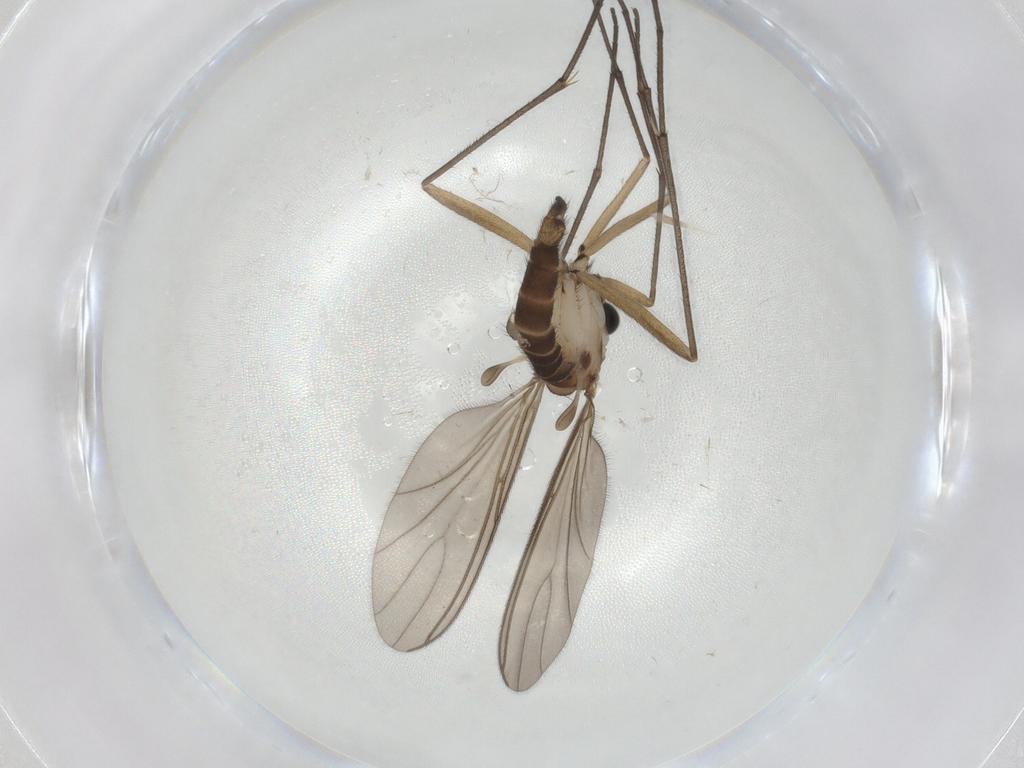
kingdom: Animalia
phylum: Arthropoda
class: Insecta
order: Diptera
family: Sciaridae
